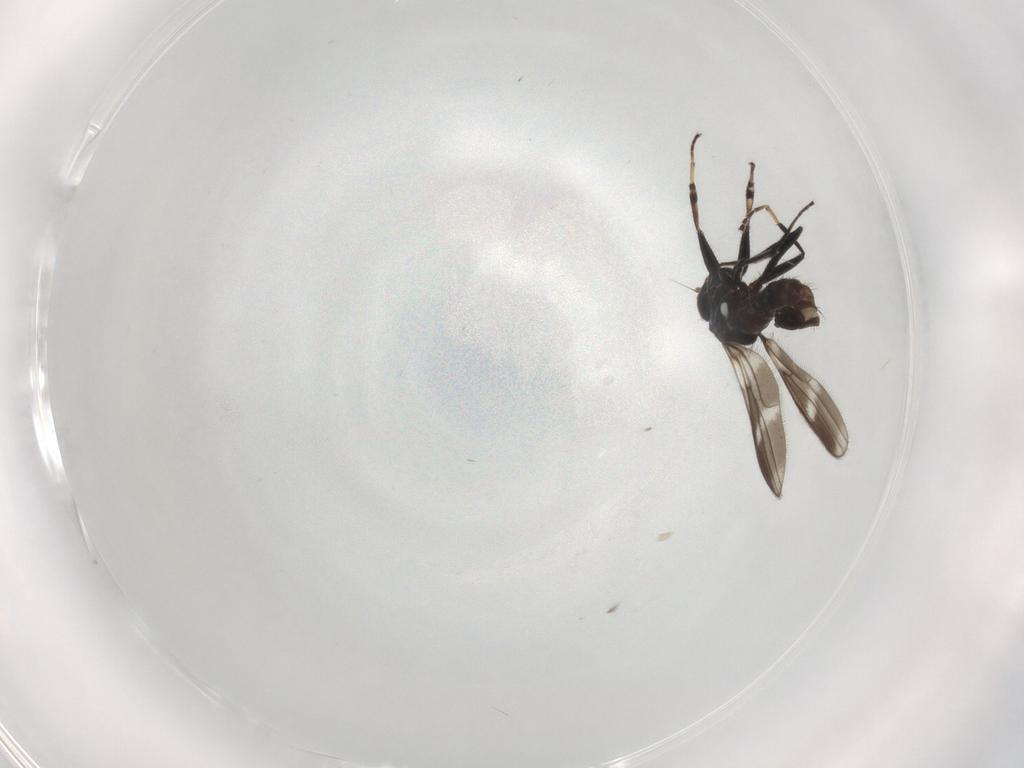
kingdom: Animalia
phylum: Arthropoda
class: Insecta
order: Diptera
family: Hybotidae
